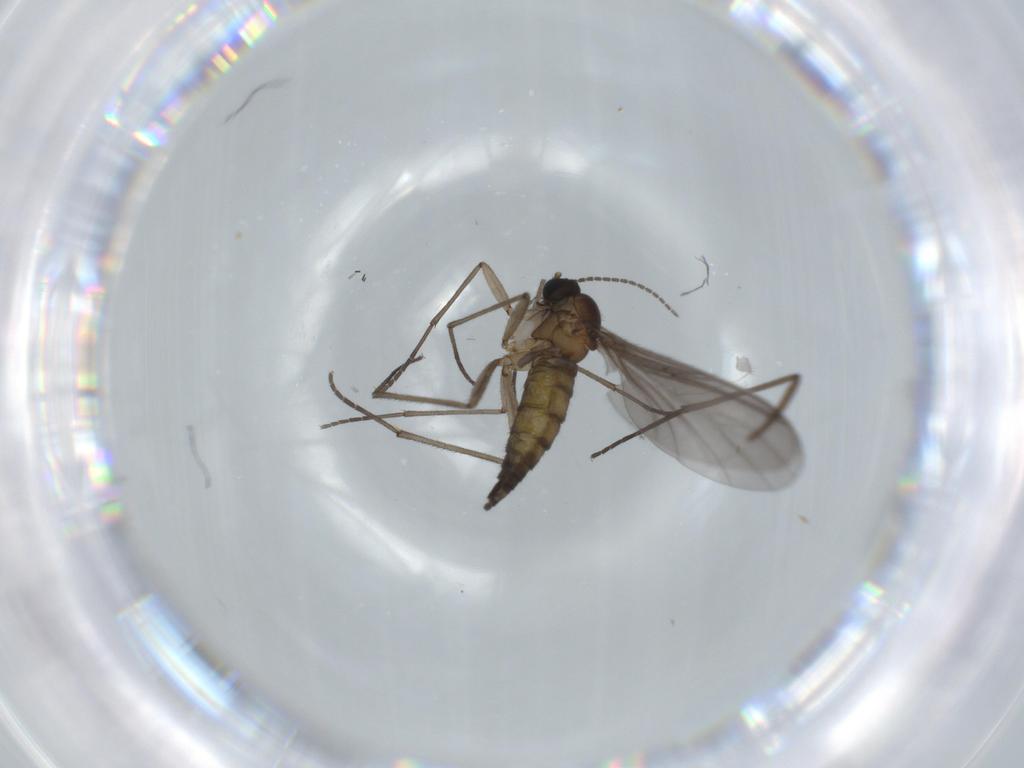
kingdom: Animalia
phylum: Arthropoda
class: Insecta
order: Diptera
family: Sciaridae
